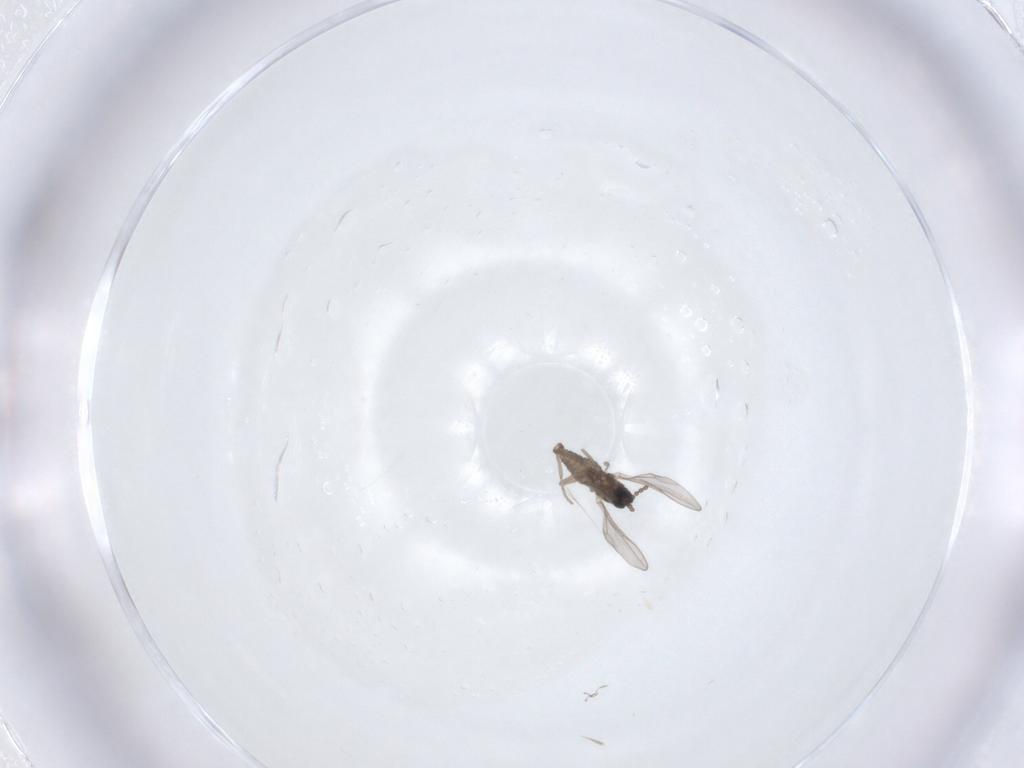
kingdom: Animalia
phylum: Arthropoda
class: Insecta
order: Diptera
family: Cecidomyiidae
